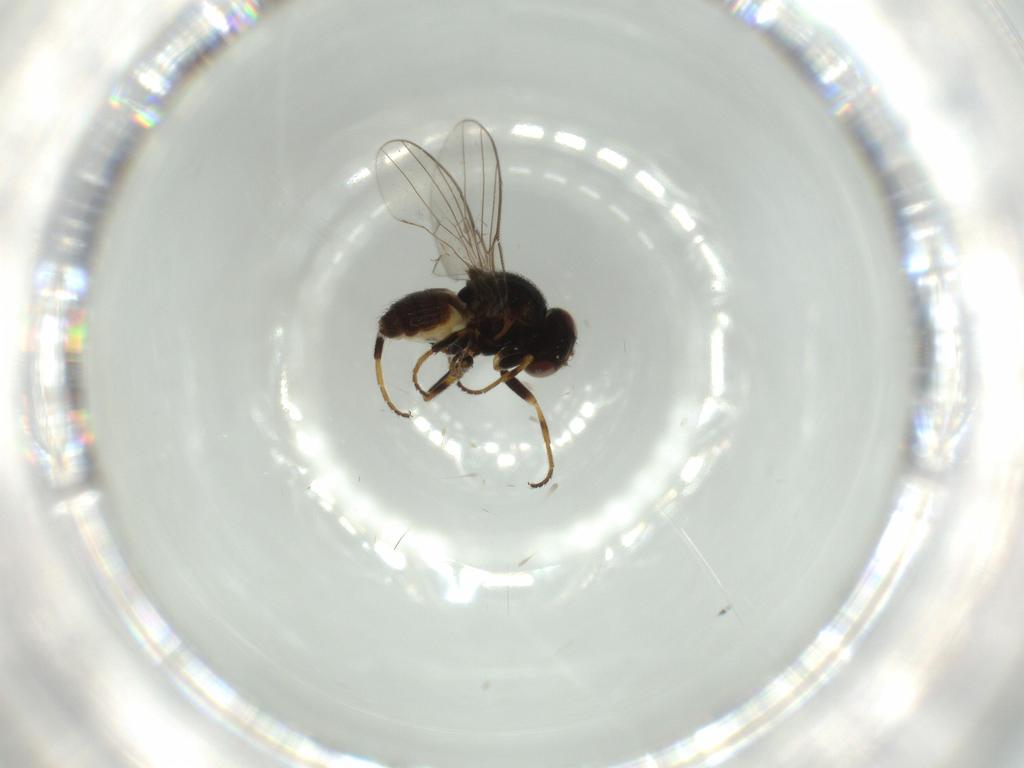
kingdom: Animalia
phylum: Arthropoda
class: Insecta
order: Diptera
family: Chloropidae
